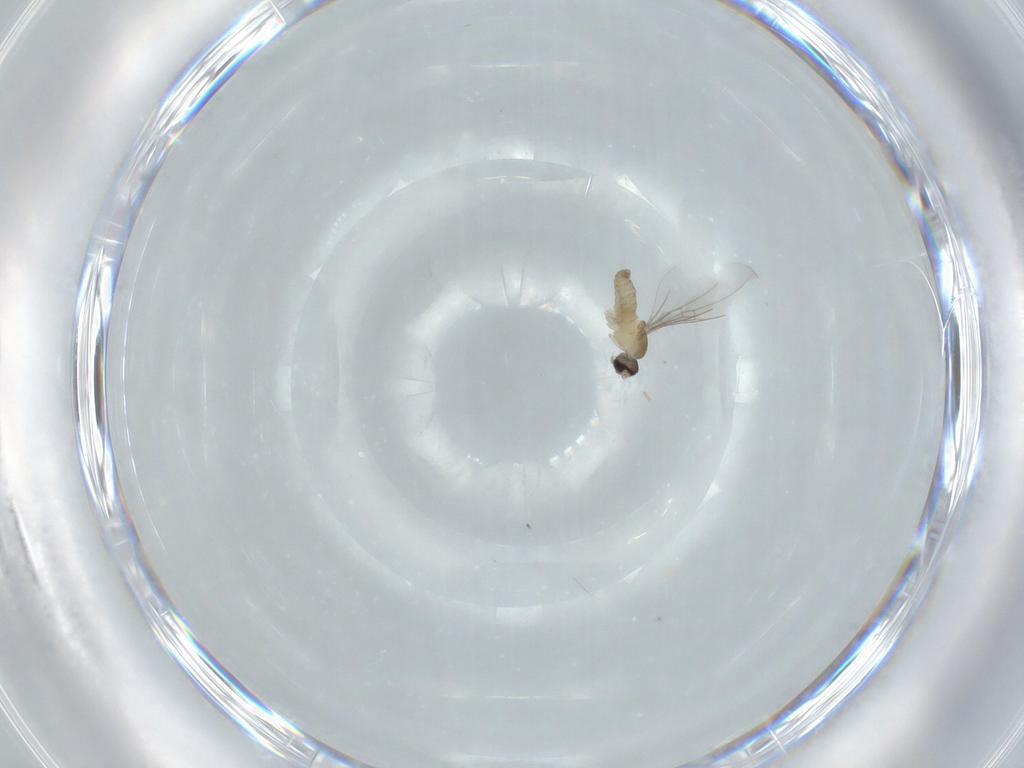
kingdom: Animalia
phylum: Arthropoda
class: Insecta
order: Diptera
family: Cecidomyiidae
